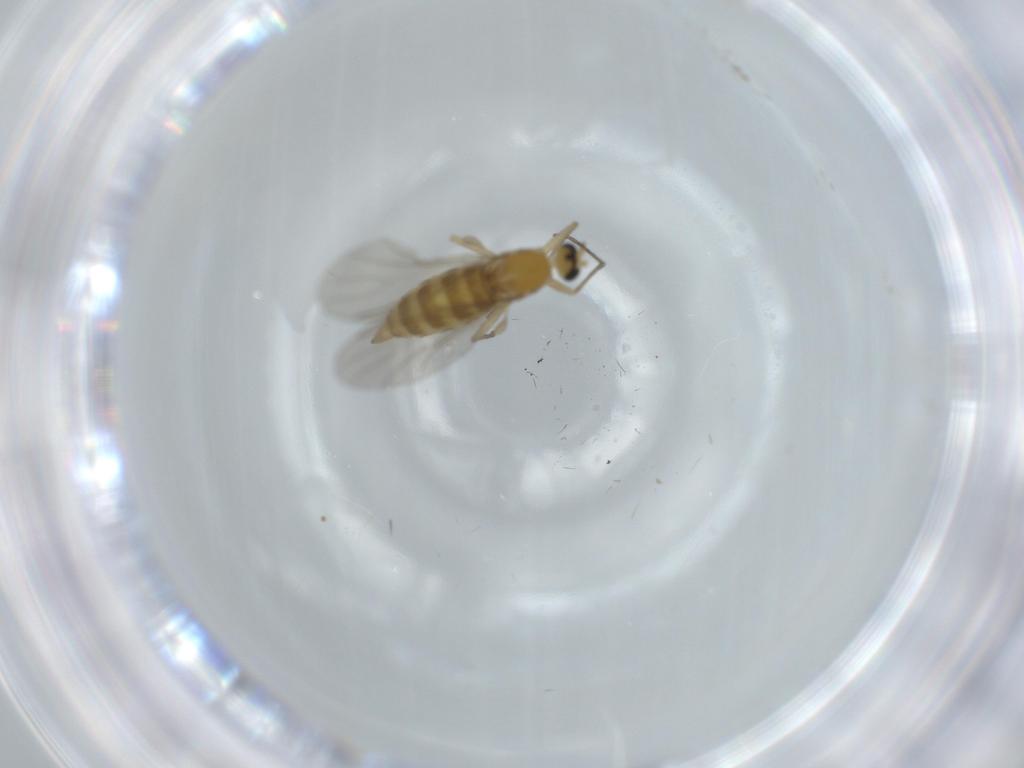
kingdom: Animalia
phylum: Arthropoda
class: Insecta
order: Diptera
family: Sciaridae
